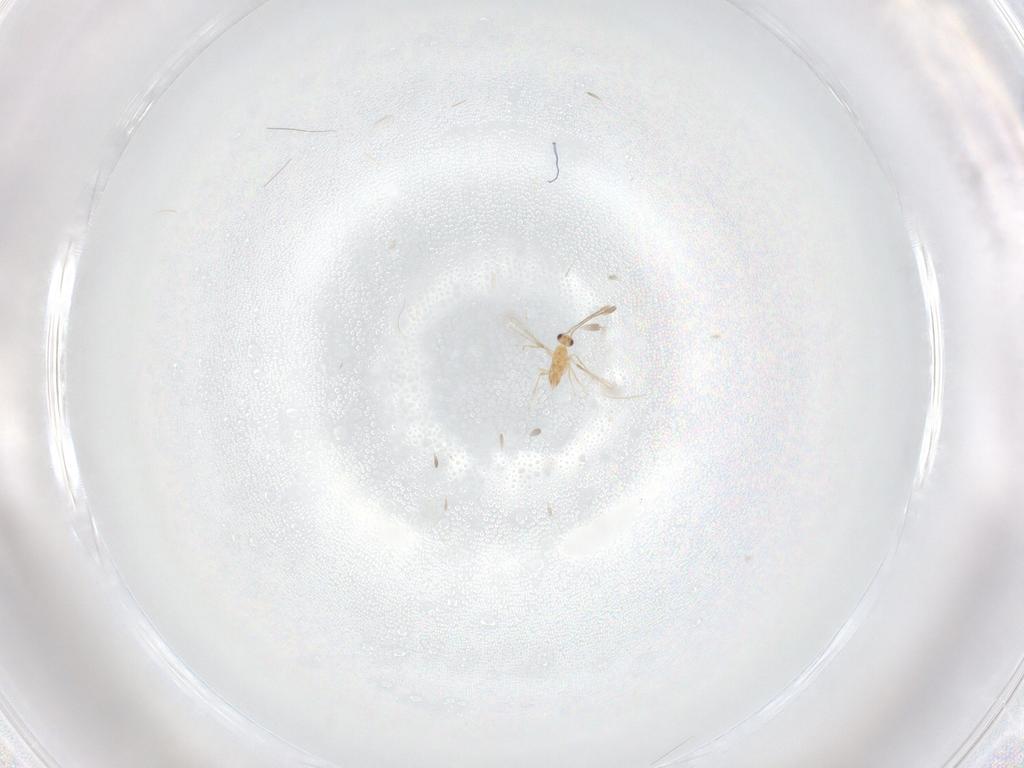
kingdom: Animalia
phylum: Arthropoda
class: Insecta
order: Hymenoptera
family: Mymaridae
